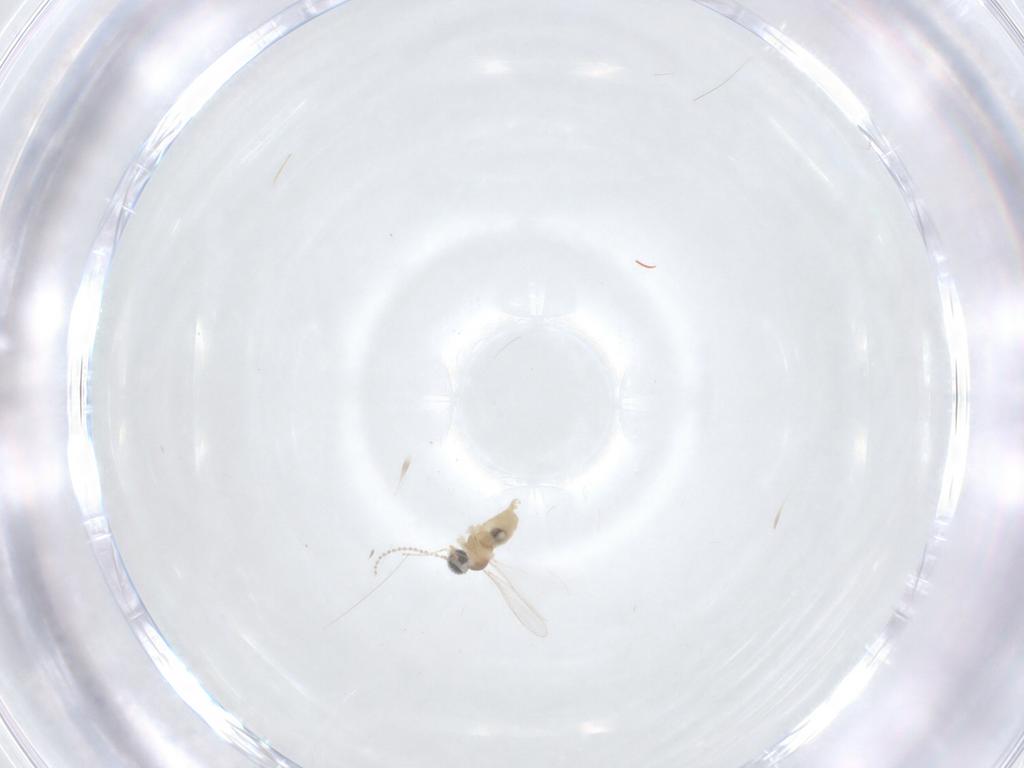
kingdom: Animalia
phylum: Arthropoda
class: Insecta
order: Diptera
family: Cecidomyiidae
